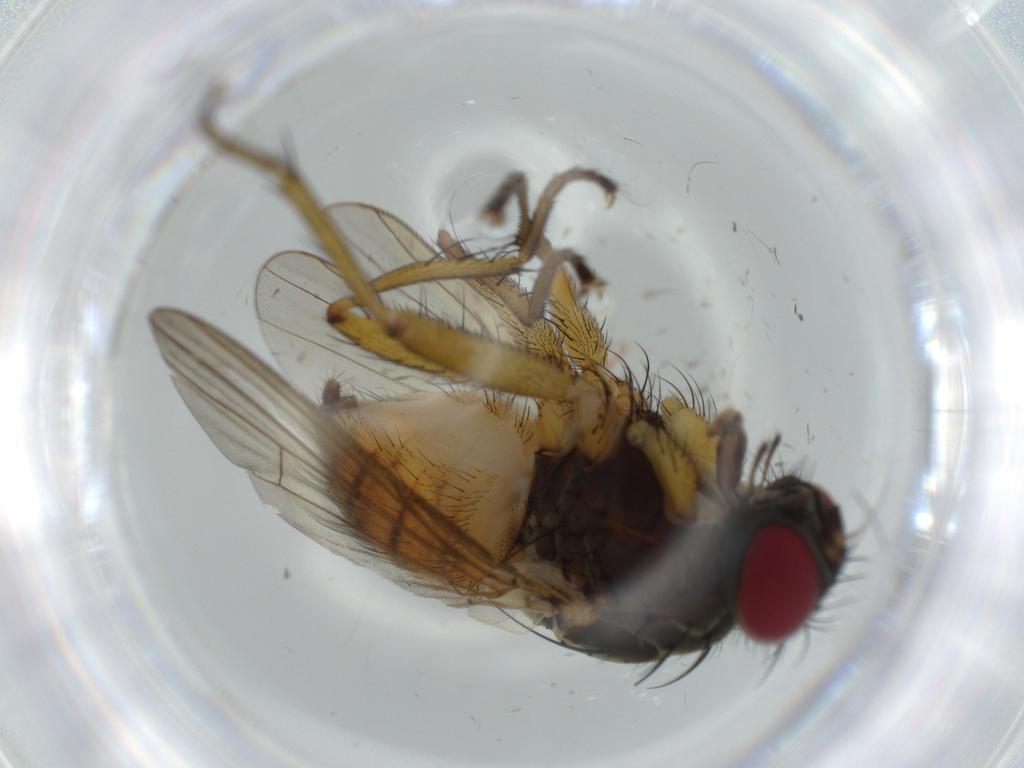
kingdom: Animalia
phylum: Arthropoda
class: Insecta
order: Diptera
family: Muscidae
